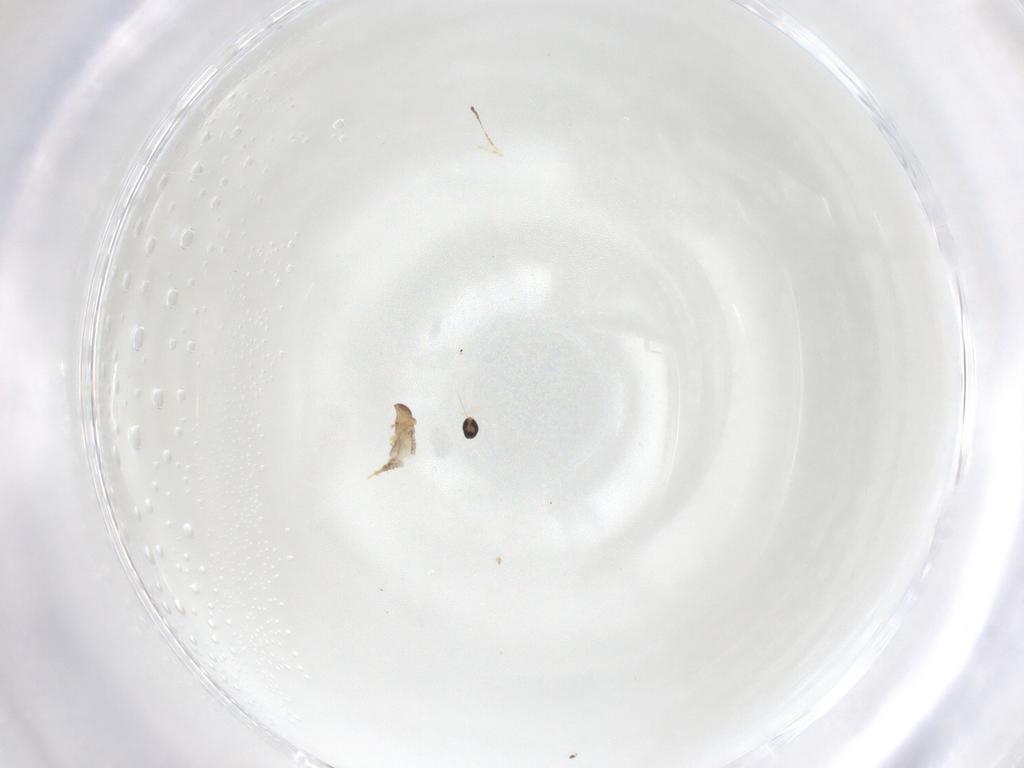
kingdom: Animalia
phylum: Arthropoda
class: Insecta
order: Diptera
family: Cecidomyiidae
